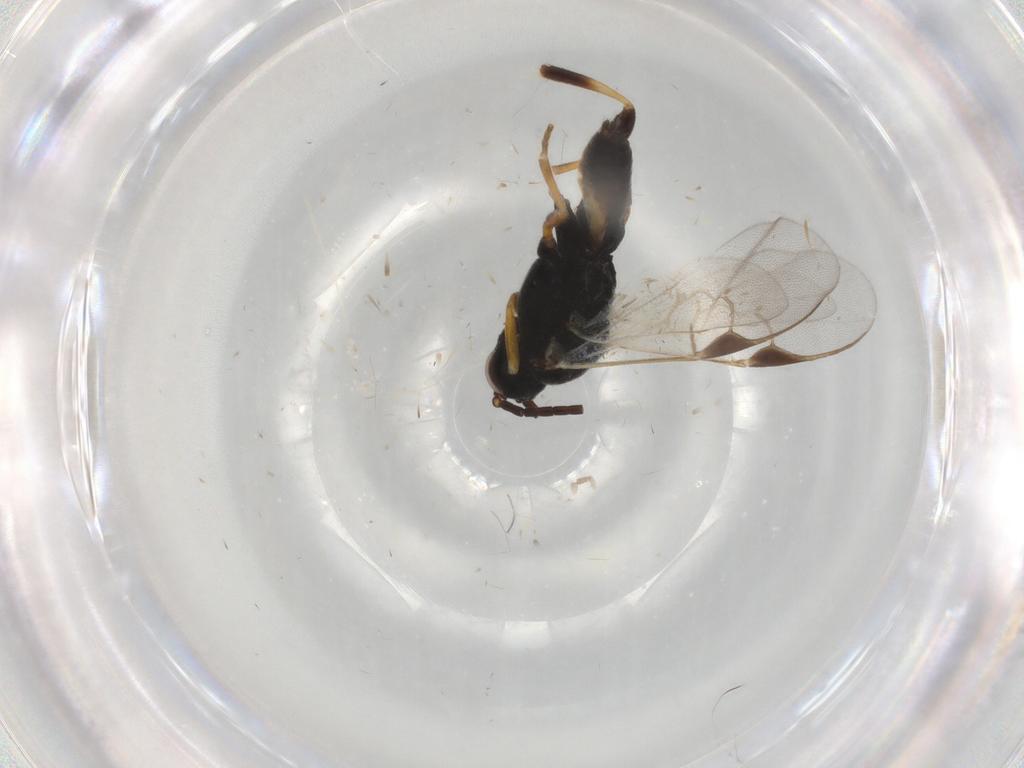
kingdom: Animalia
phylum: Arthropoda
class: Insecta
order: Hymenoptera
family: Braconidae
